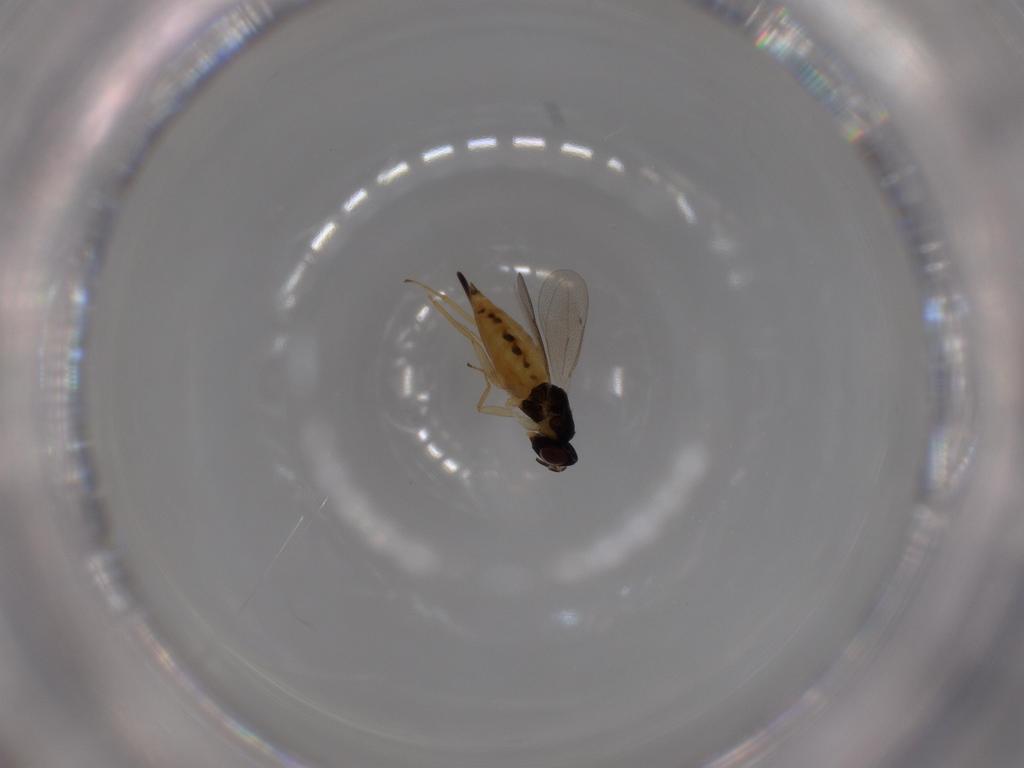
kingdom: Animalia
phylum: Arthropoda
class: Insecta
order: Hymenoptera
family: Eulophidae
